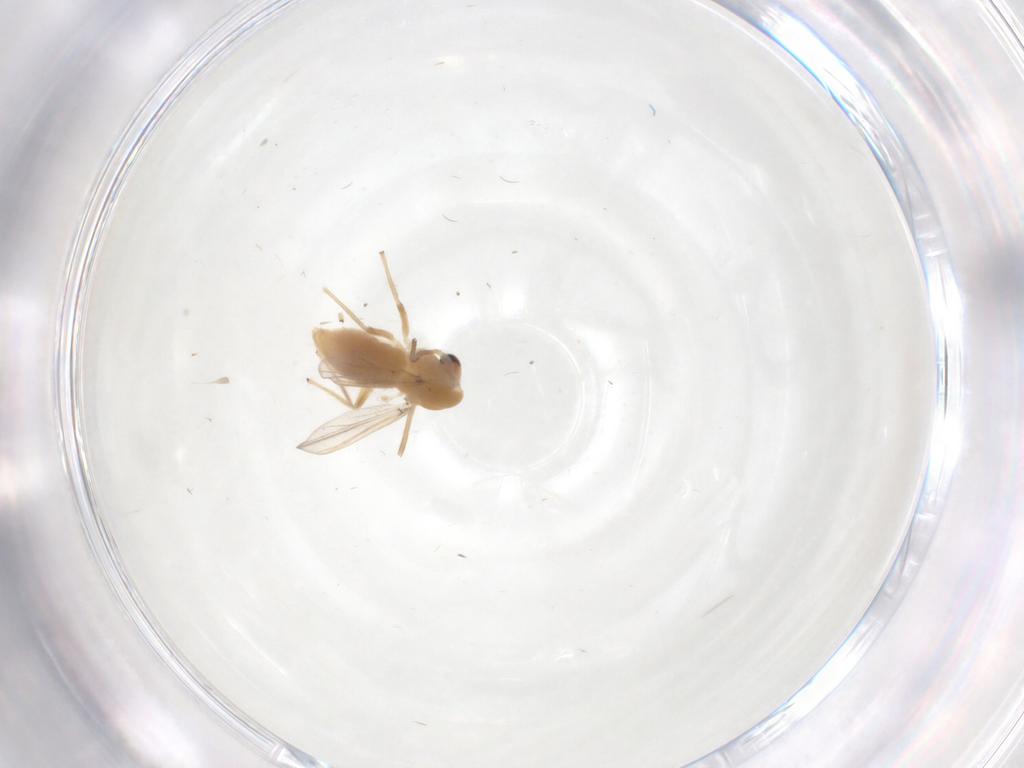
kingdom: Animalia
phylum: Arthropoda
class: Insecta
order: Diptera
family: Chironomidae
